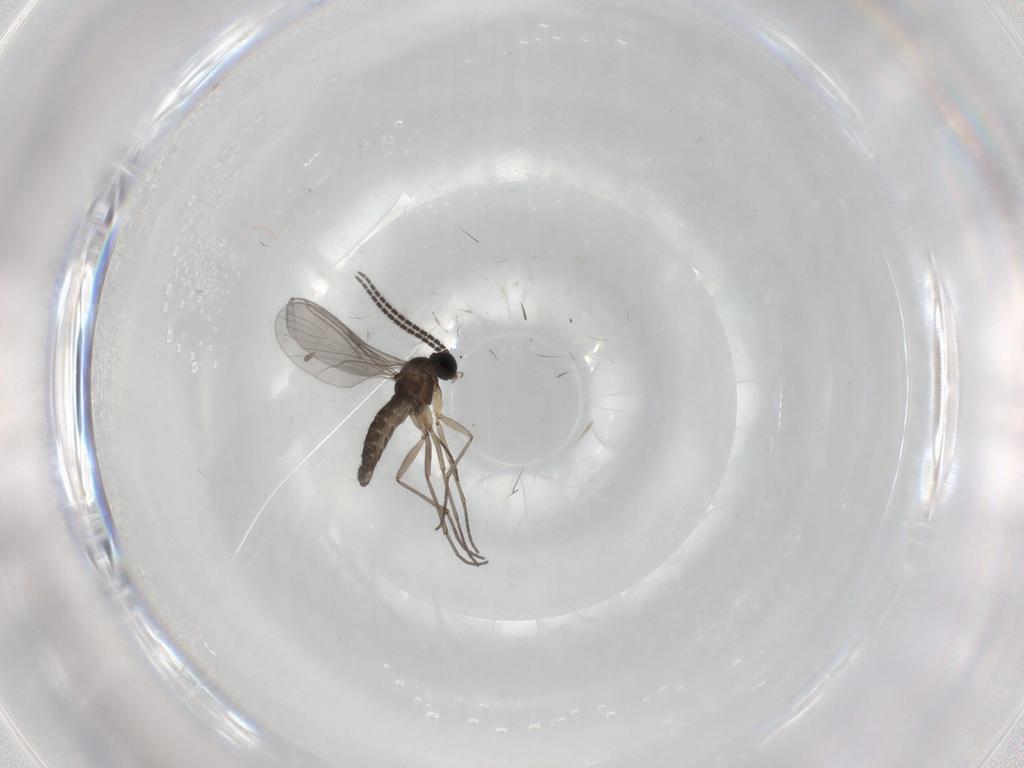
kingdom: Animalia
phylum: Arthropoda
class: Insecta
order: Diptera
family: Sciaridae
